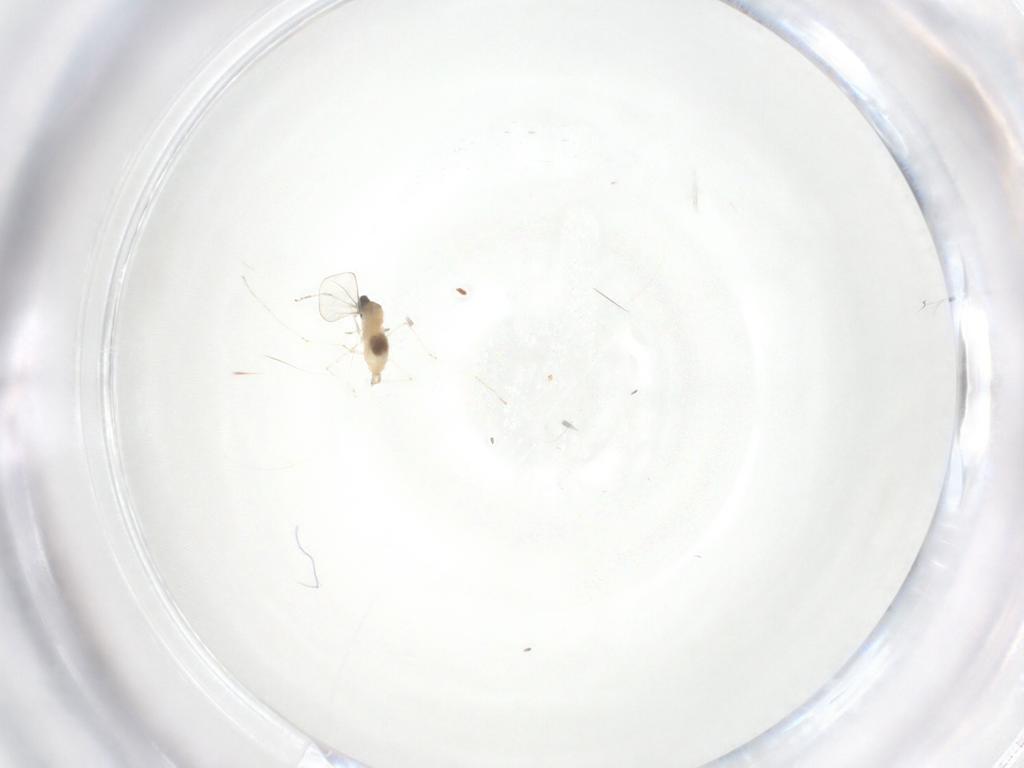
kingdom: Animalia
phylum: Arthropoda
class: Insecta
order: Diptera
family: Cecidomyiidae
